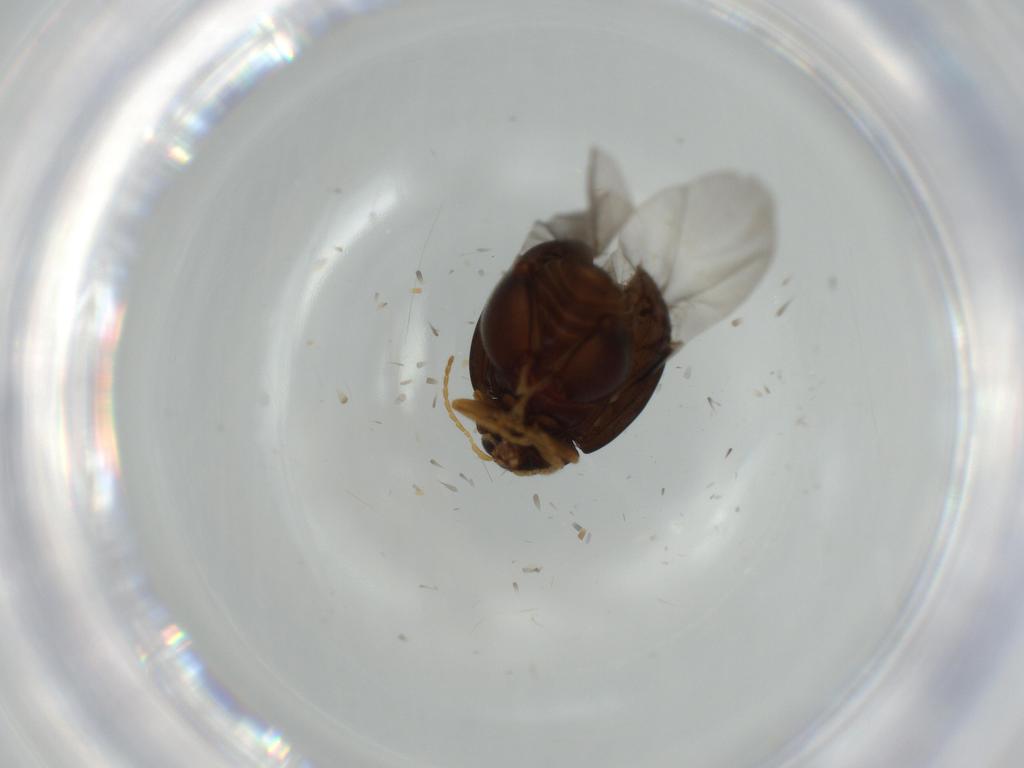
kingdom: Animalia
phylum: Arthropoda
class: Insecta
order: Coleoptera
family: Chrysomelidae
